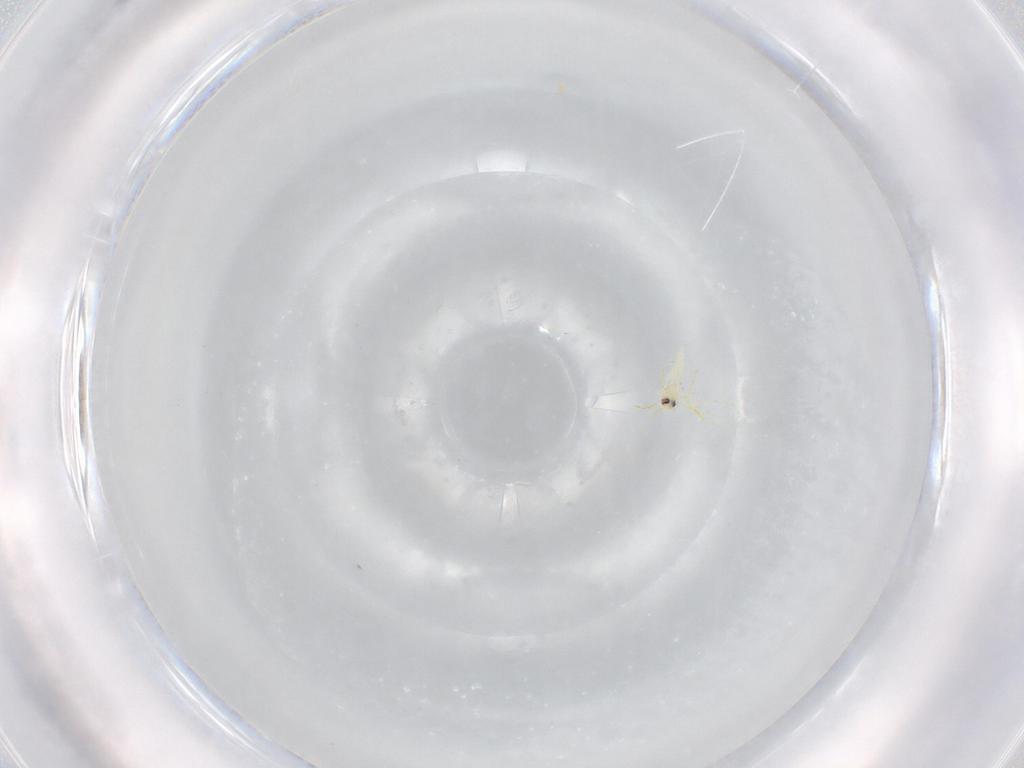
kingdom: Animalia
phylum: Arthropoda
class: Insecta
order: Hemiptera
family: Aleyrodidae
